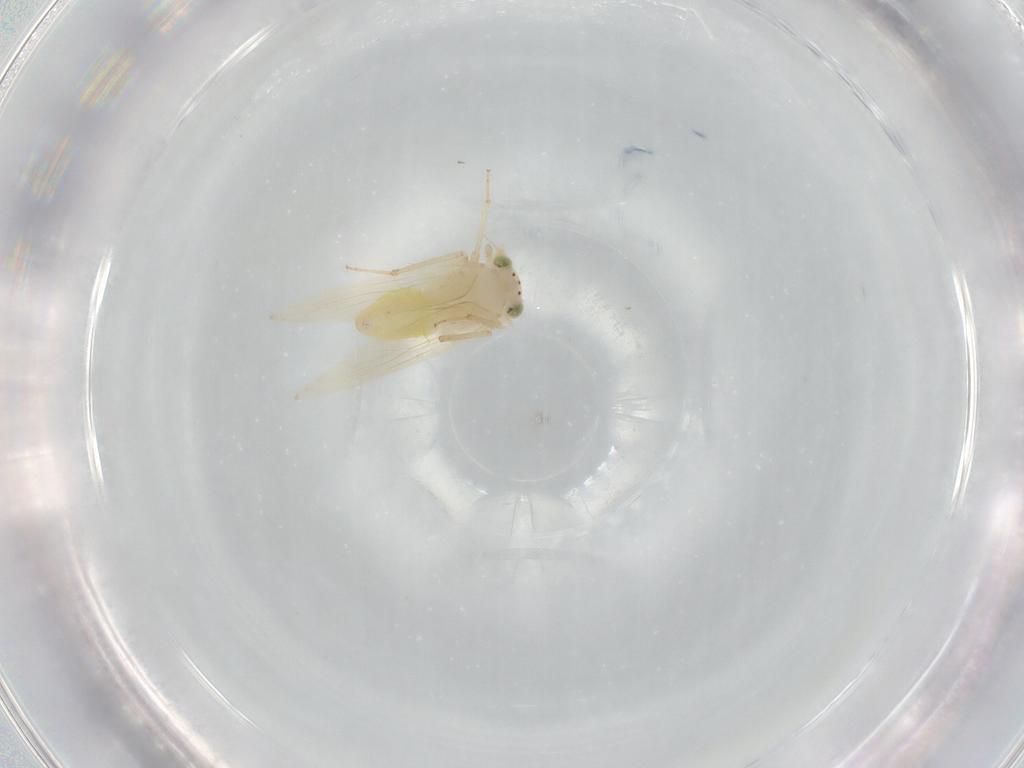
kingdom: Animalia
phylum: Arthropoda
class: Insecta
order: Psocodea
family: Lepidopsocidae
